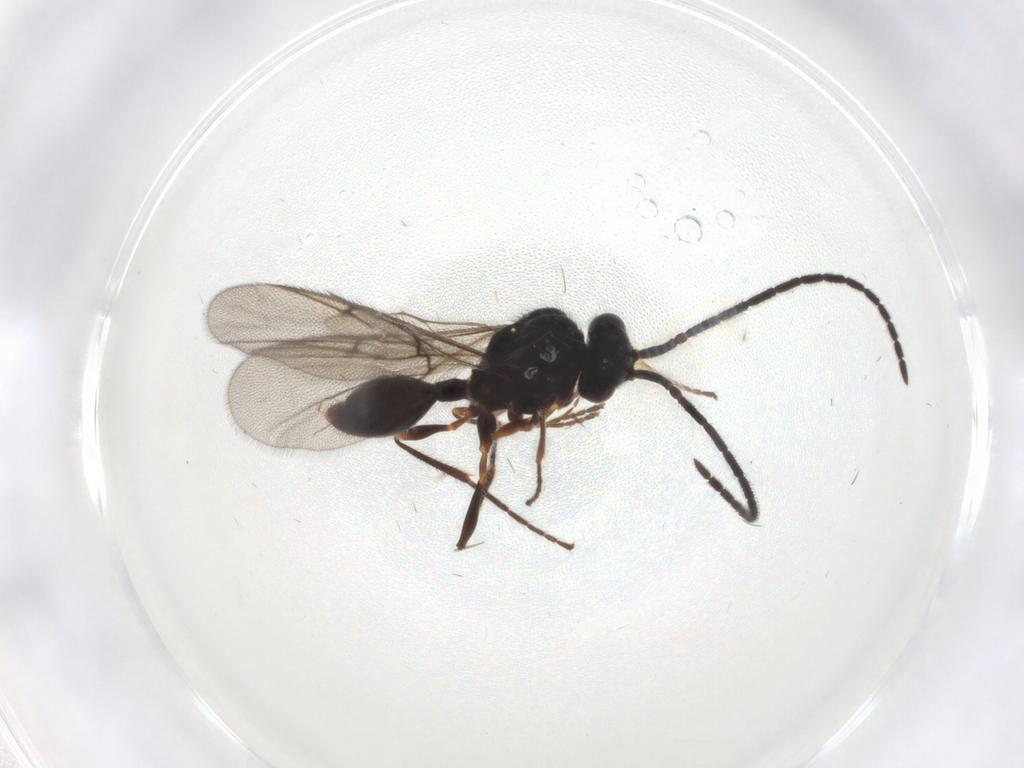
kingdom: Animalia
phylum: Arthropoda
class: Insecta
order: Hymenoptera
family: Diapriidae
